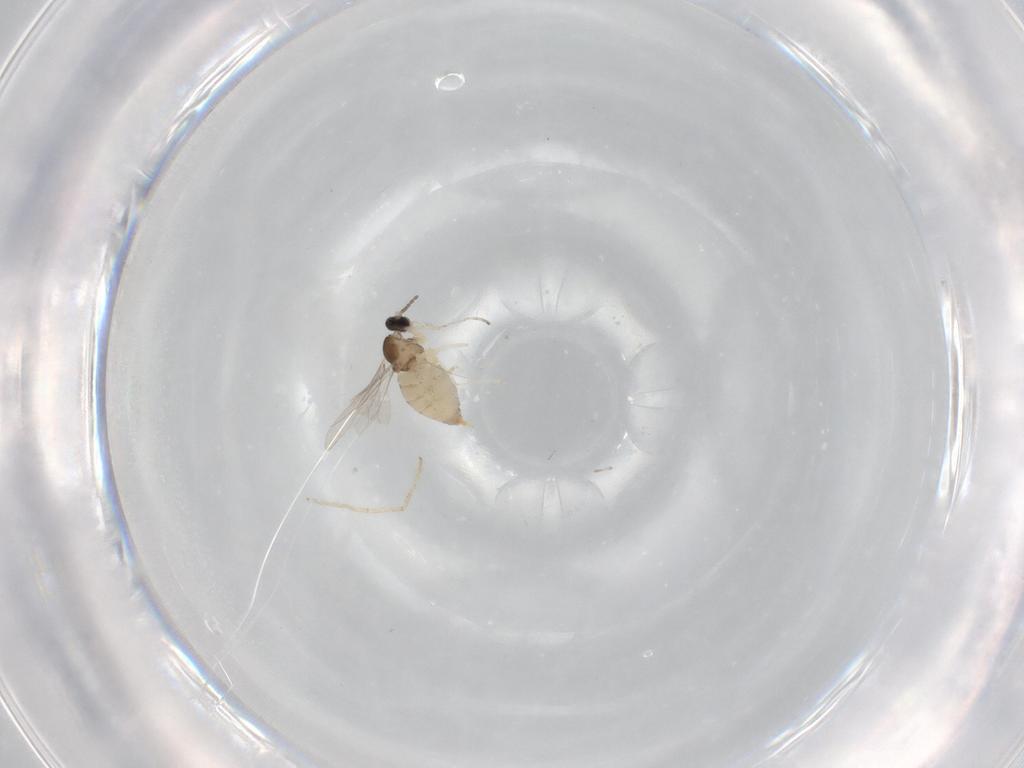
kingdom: Animalia
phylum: Arthropoda
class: Insecta
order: Diptera
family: Cecidomyiidae
